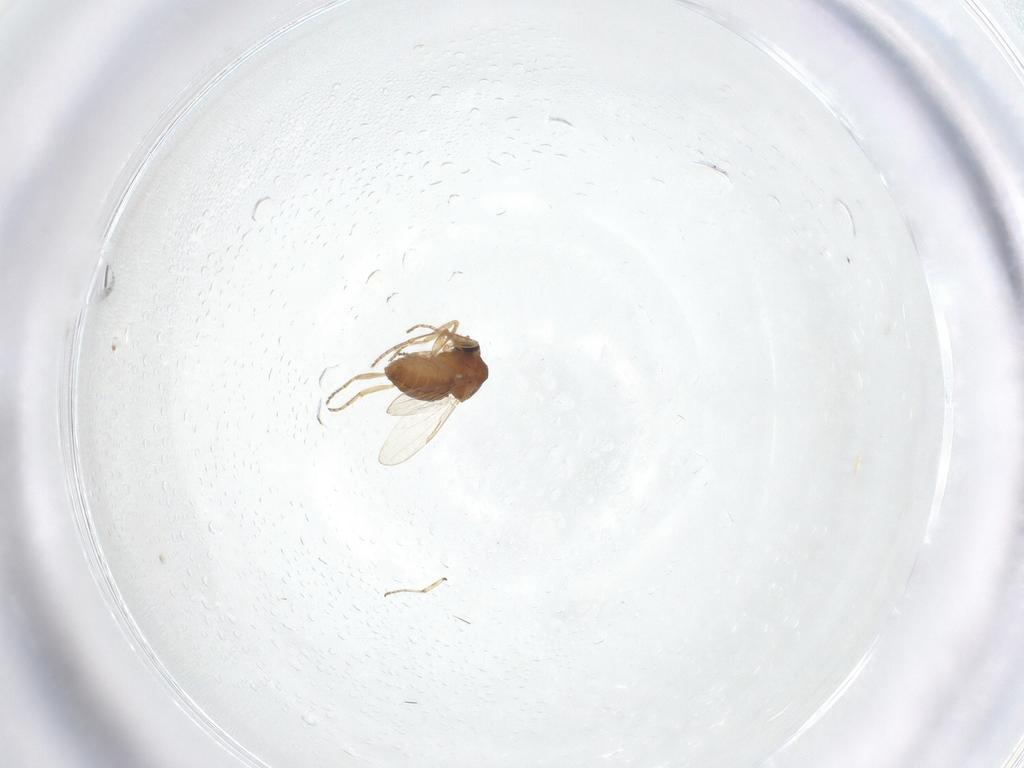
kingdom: Animalia
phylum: Arthropoda
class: Insecta
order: Diptera
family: Ceratopogonidae
